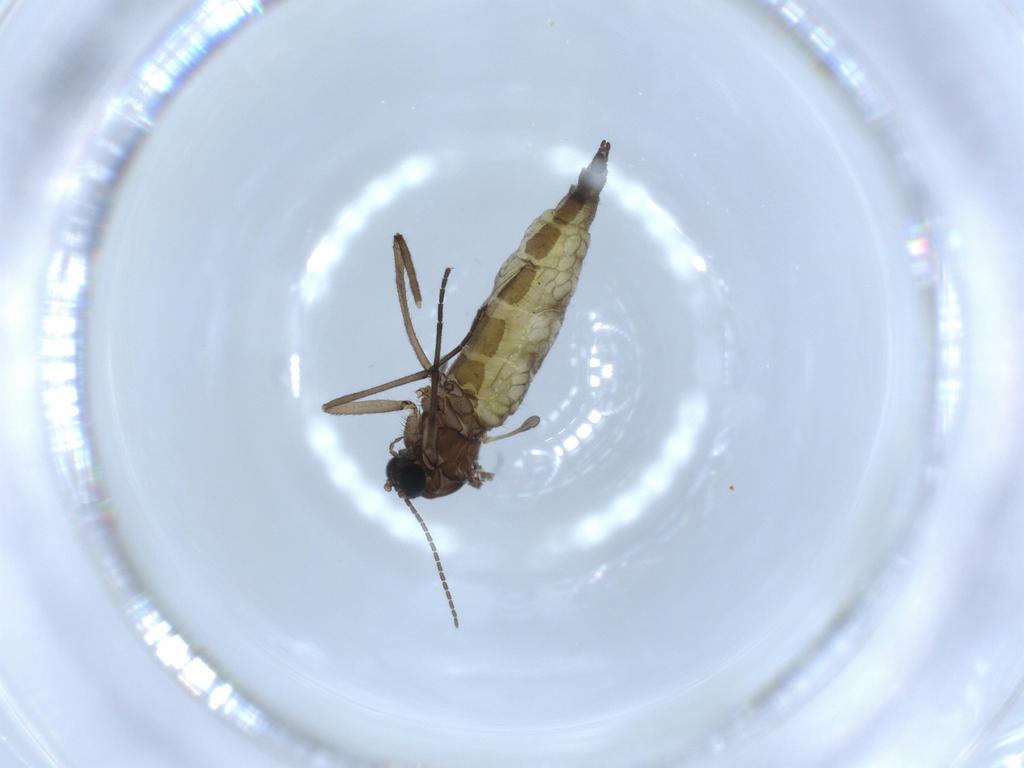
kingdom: Animalia
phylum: Arthropoda
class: Insecta
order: Diptera
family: Sciaridae
